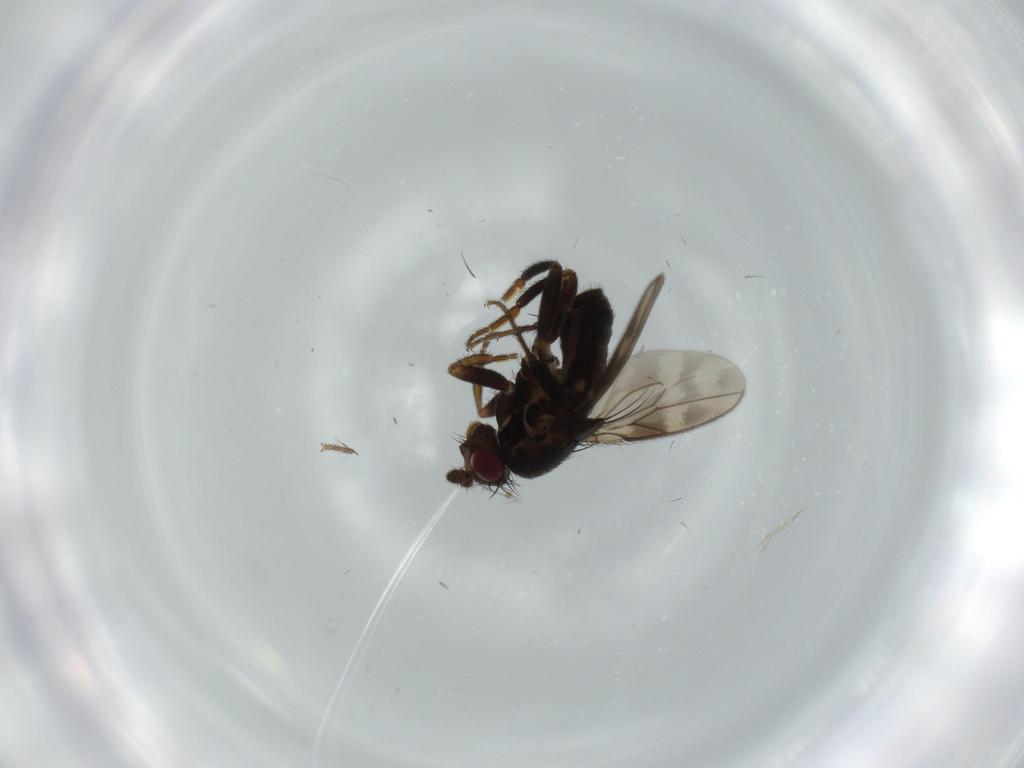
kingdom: Animalia
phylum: Arthropoda
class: Insecta
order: Diptera
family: Sphaeroceridae
